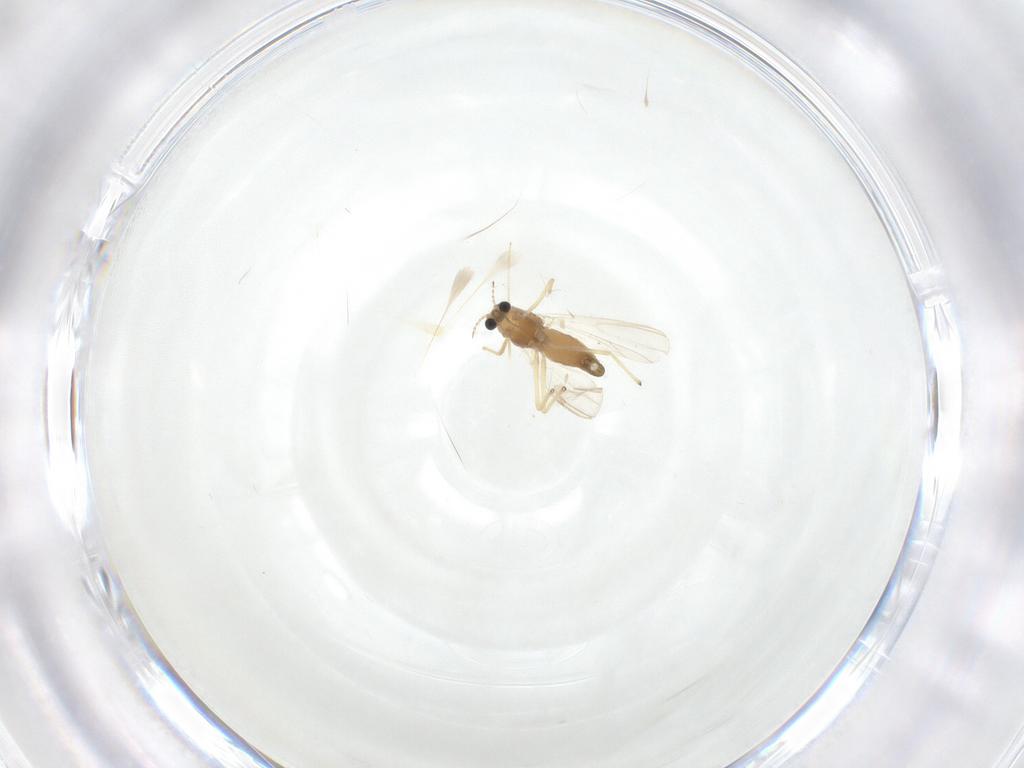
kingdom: Animalia
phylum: Arthropoda
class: Insecta
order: Diptera
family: Chironomidae
